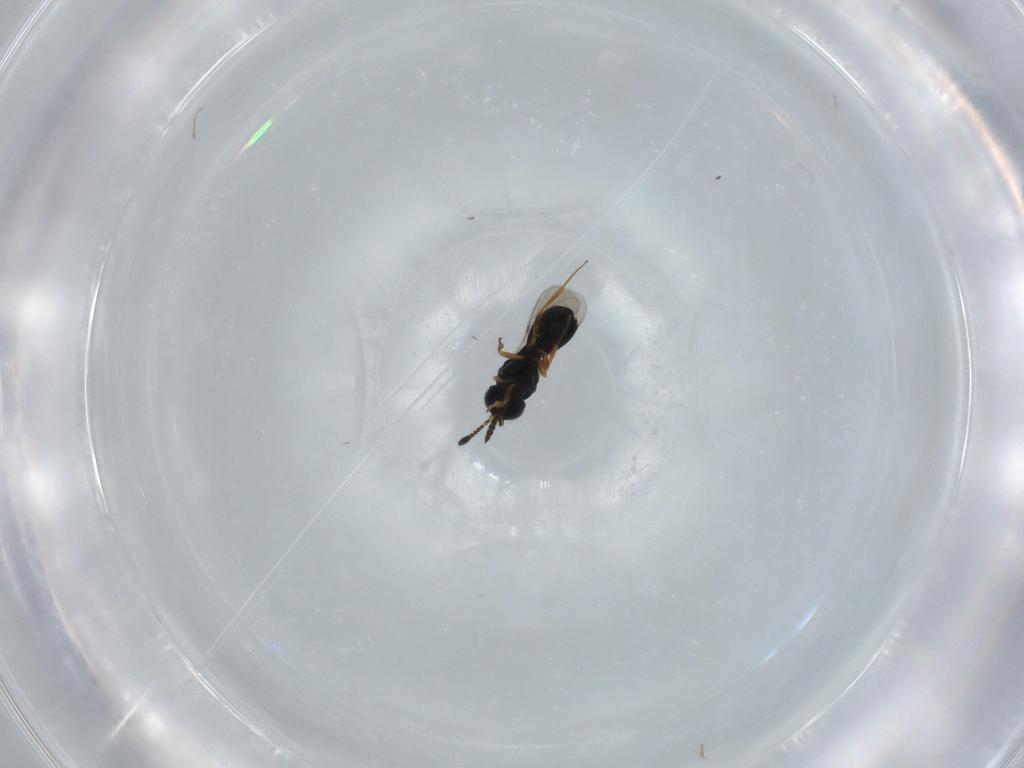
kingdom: Animalia
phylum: Arthropoda
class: Insecta
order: Hymenoptera
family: Scelionidae
